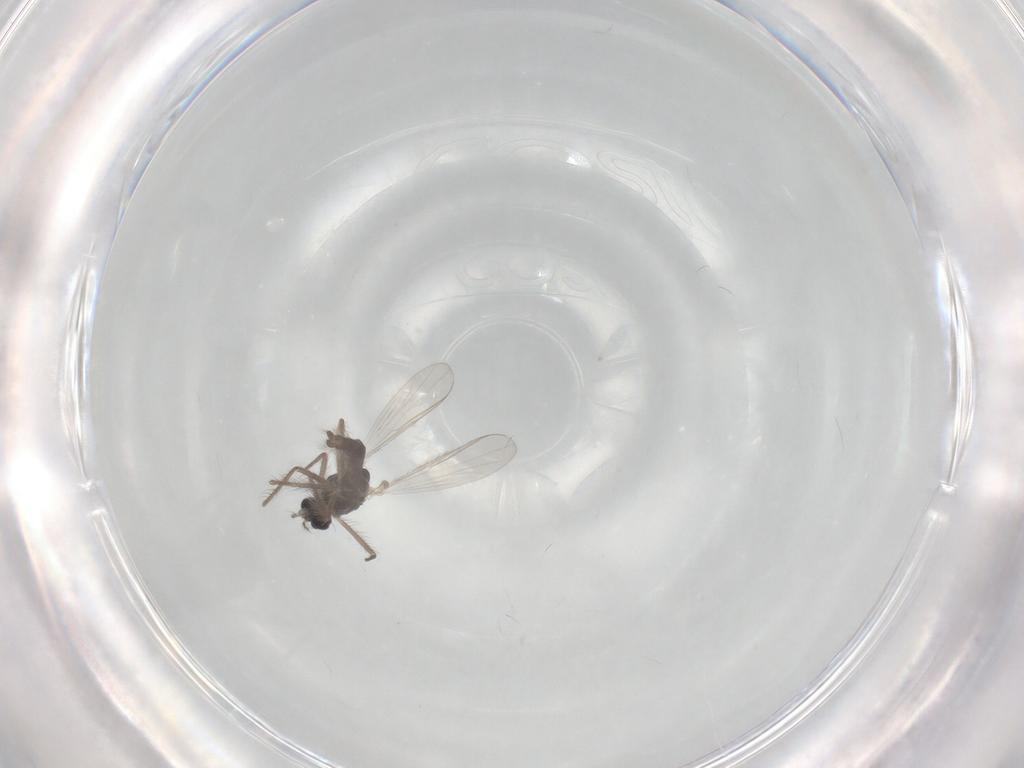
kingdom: Animalia
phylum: Arthropoda
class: Insecta
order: Diptera
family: Chironomidae
